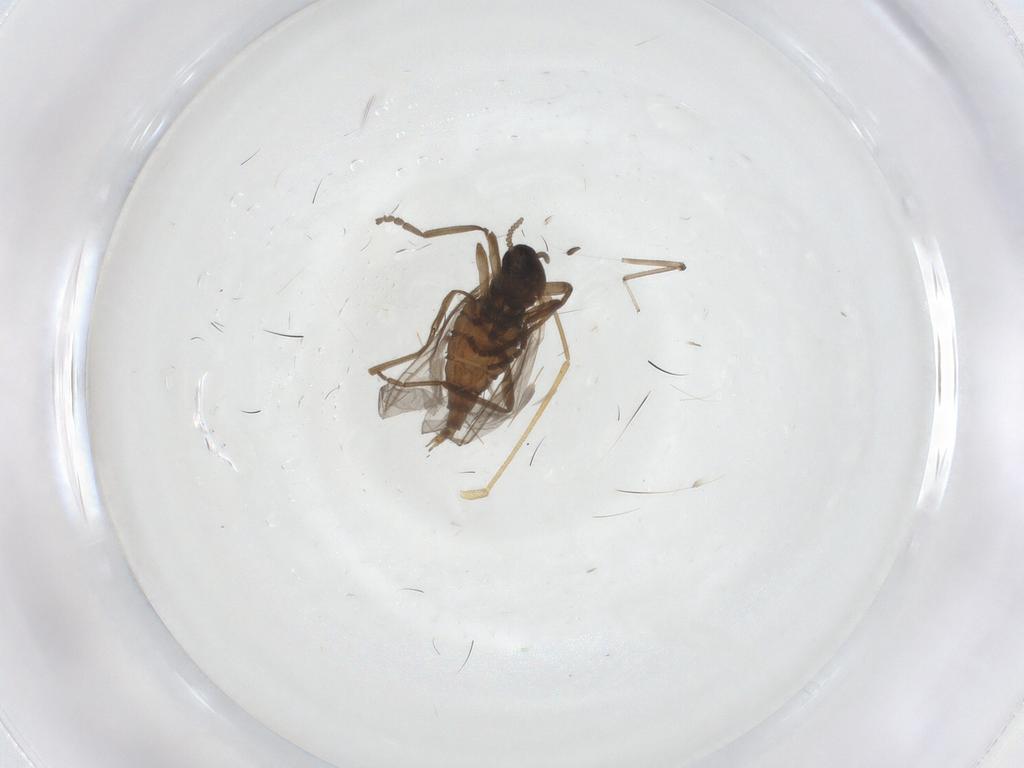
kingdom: Animalia
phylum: Arthropoda
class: Insecta
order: Diptera
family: Cecidomyiidae
